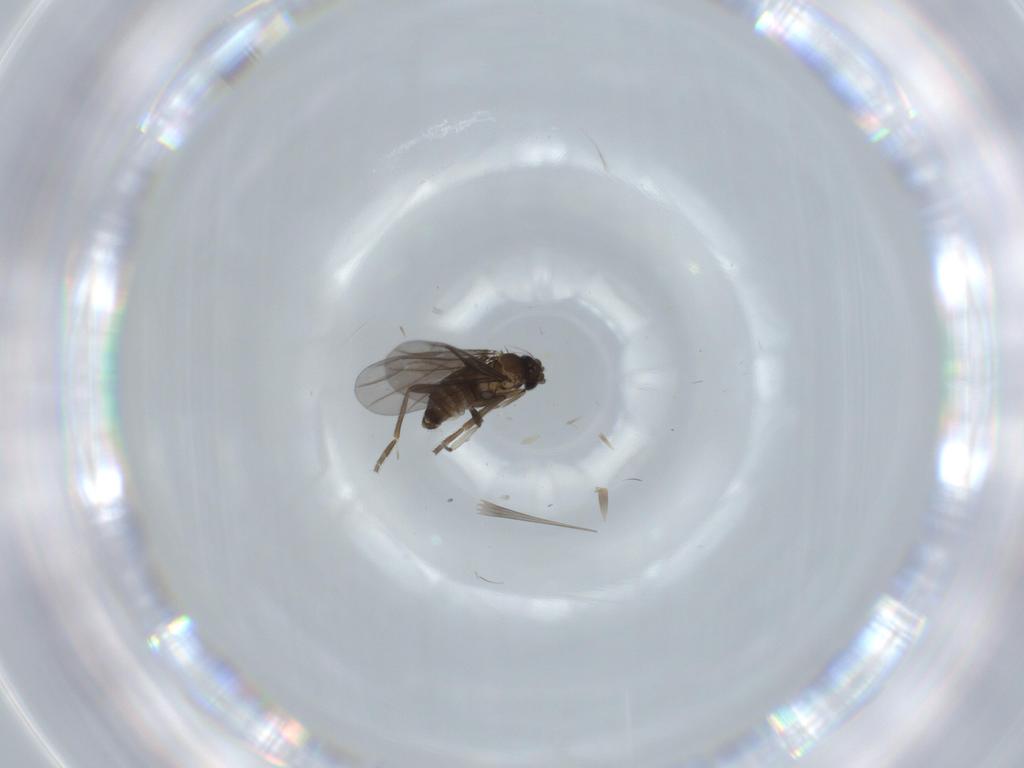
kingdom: Animalia
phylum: Arthropoda
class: Insecta
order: Diptera
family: Phoridae
